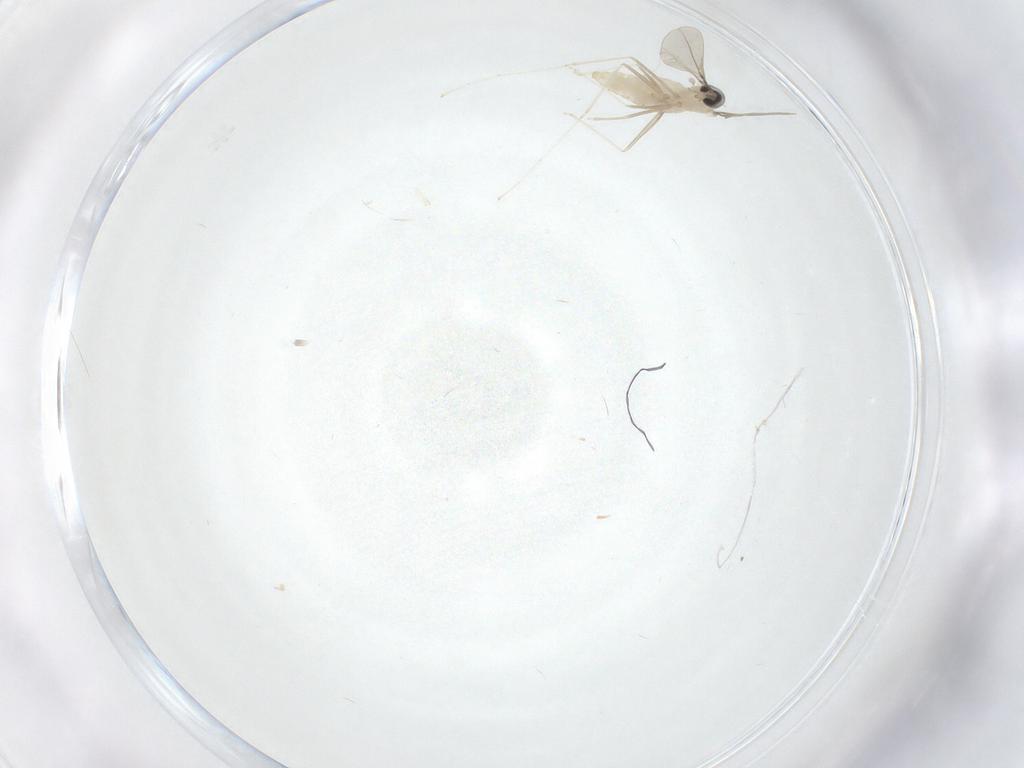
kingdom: Animalia
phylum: Arthropoda
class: Insecta
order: Diptera
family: Cecidomyiidae
